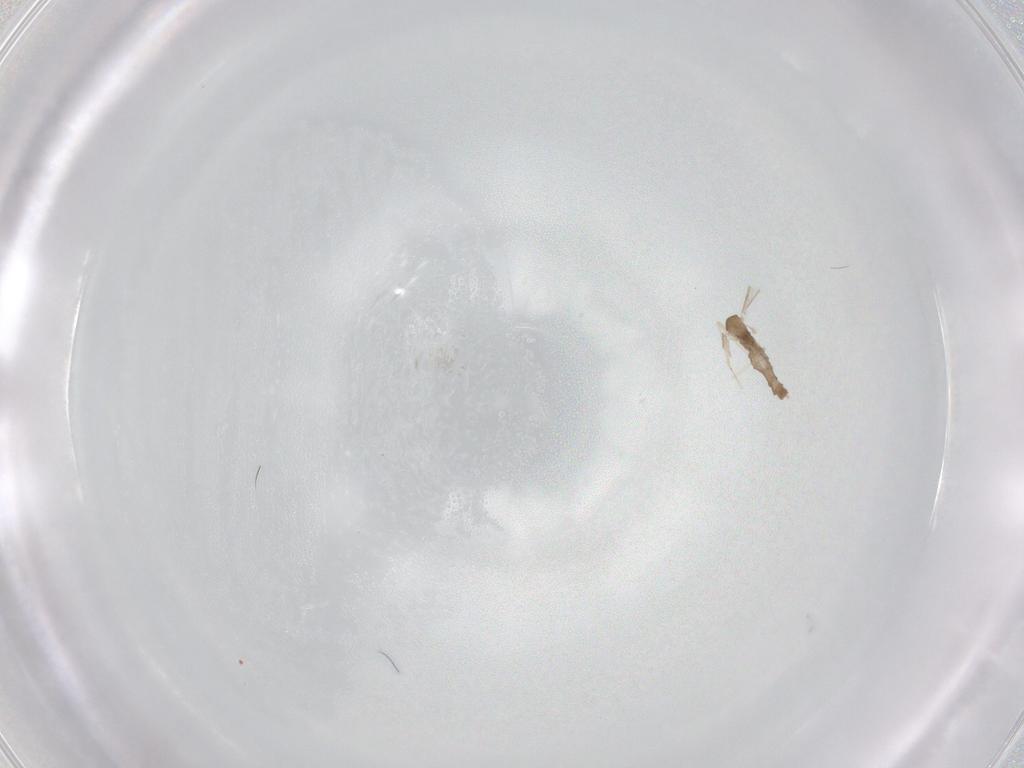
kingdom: Animalia
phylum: Arthropoda
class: Insecta
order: Diptera
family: Cecidomyiidae
